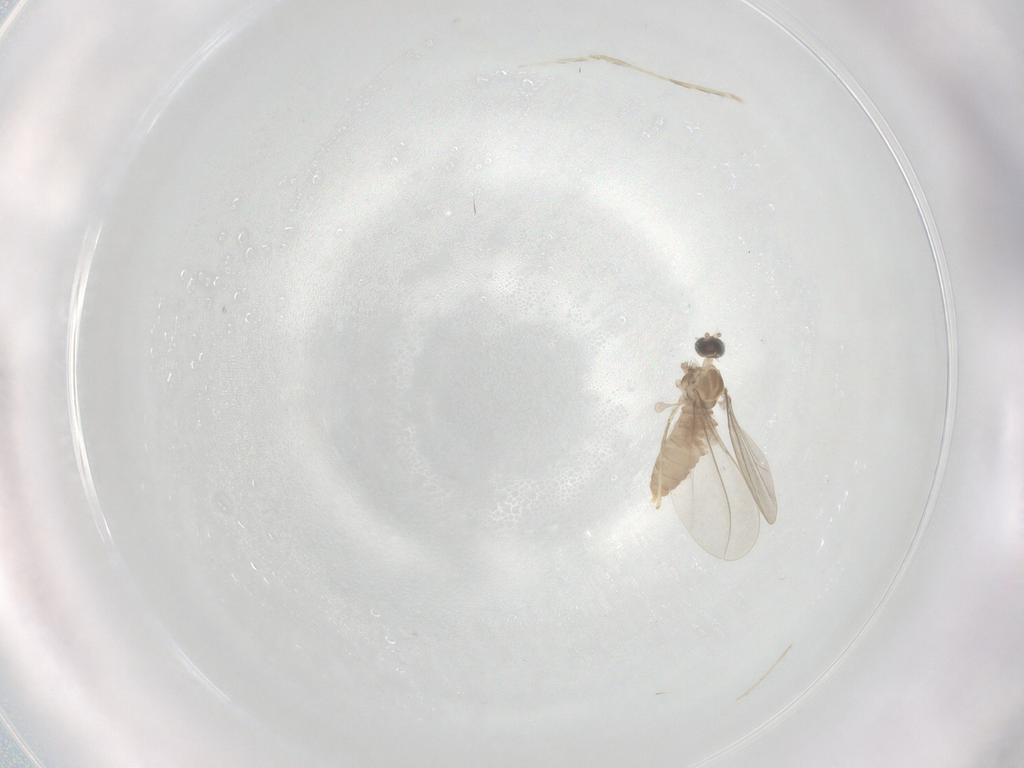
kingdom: Animalia
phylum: Arthropoda
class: Insecta
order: Diptera
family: Cecidomyiidae
